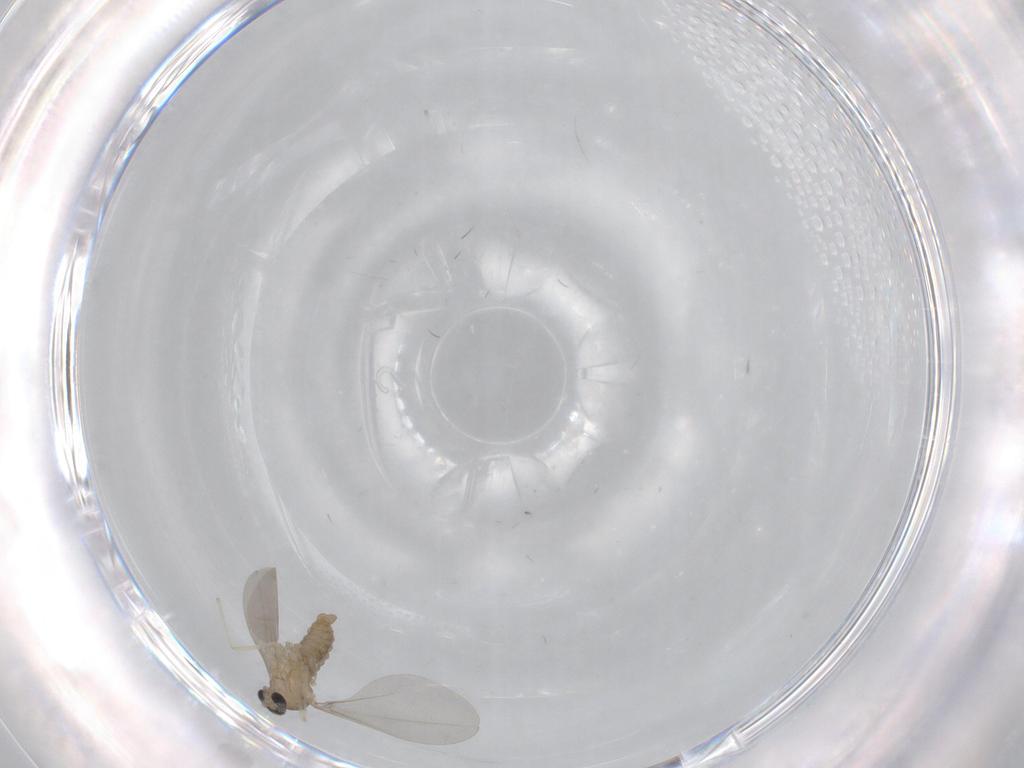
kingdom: Animalia
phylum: Arthropoda
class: Insecta
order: Diptera
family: Cecidomyiidae
